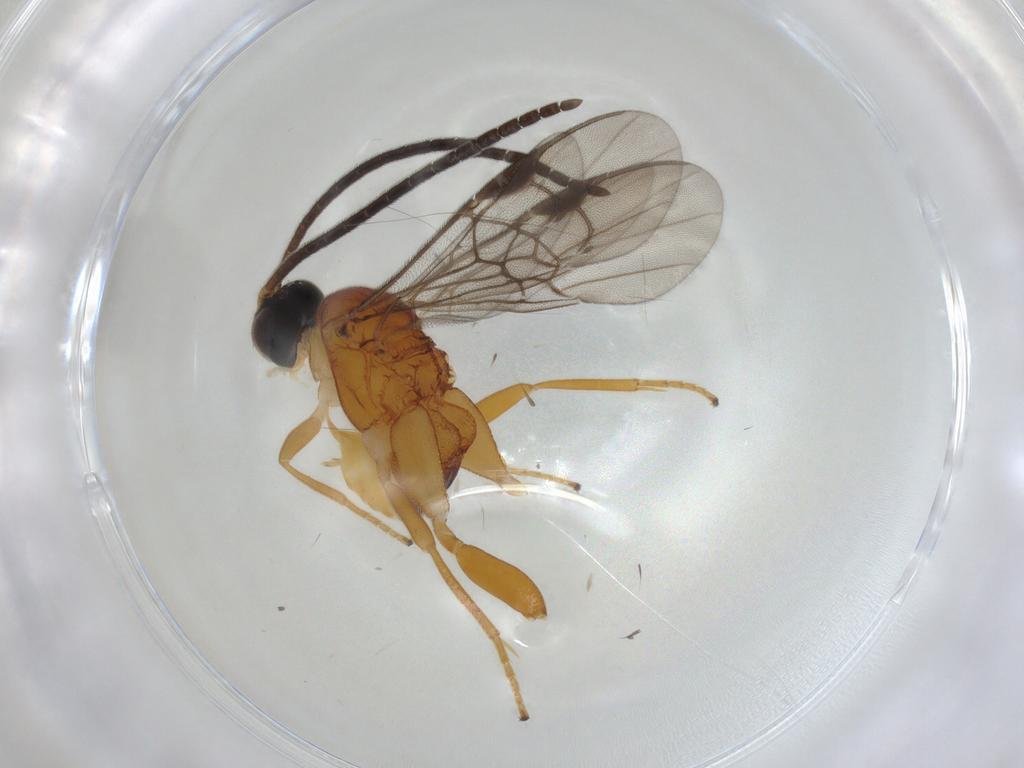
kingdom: Animalia
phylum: Arthropoda
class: Insecta
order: Hymenoptera
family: Braconidae
